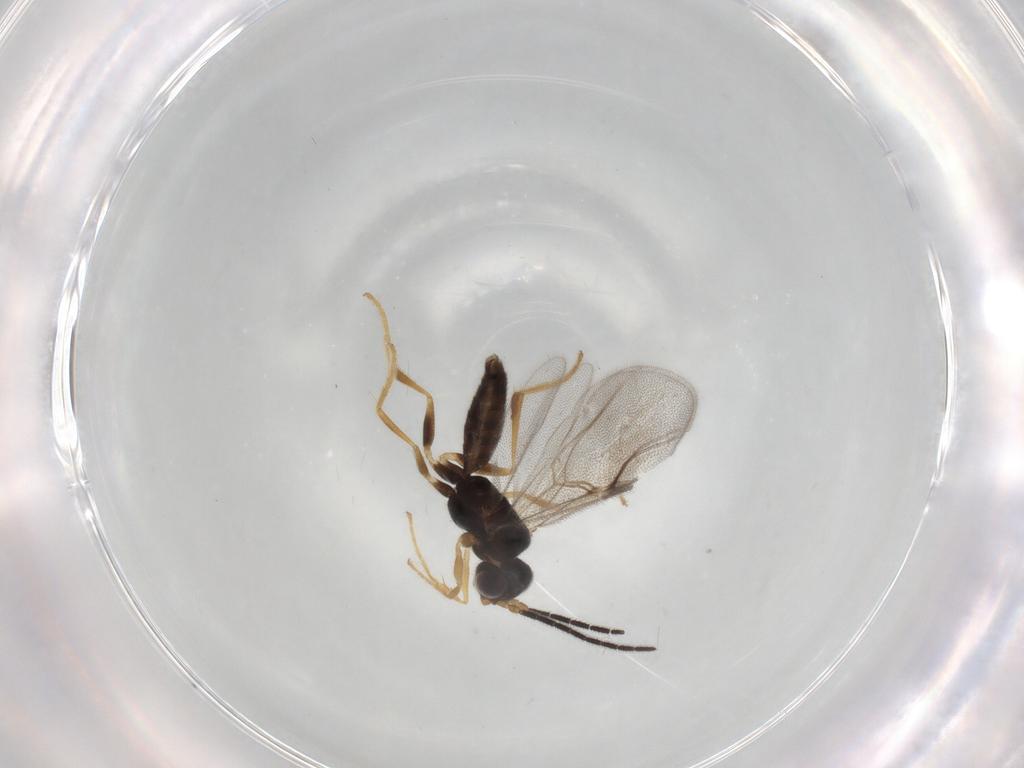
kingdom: Animalia
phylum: Arthropoda
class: Insecta
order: Hymenoptera
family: Dryinidae
